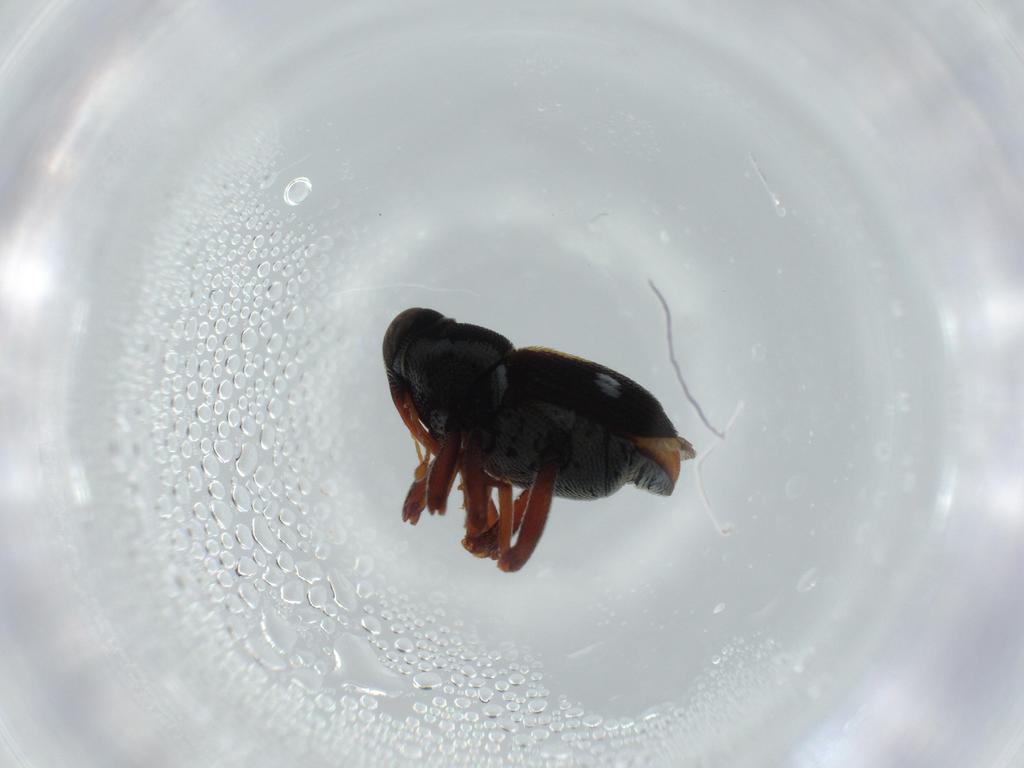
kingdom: Animalia
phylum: Arthropoda
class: Insecta
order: Coleoptera
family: Curculionidae
